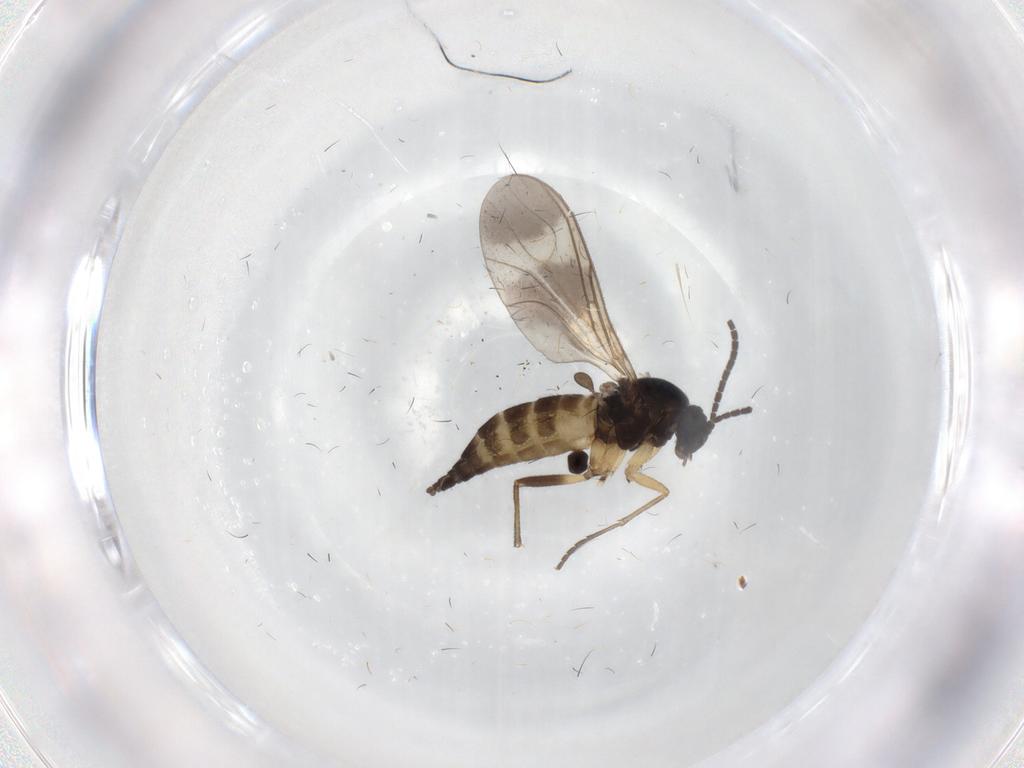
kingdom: Animalia
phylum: Arthropoda
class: Insecta
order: Diptera
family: Sciaridae
